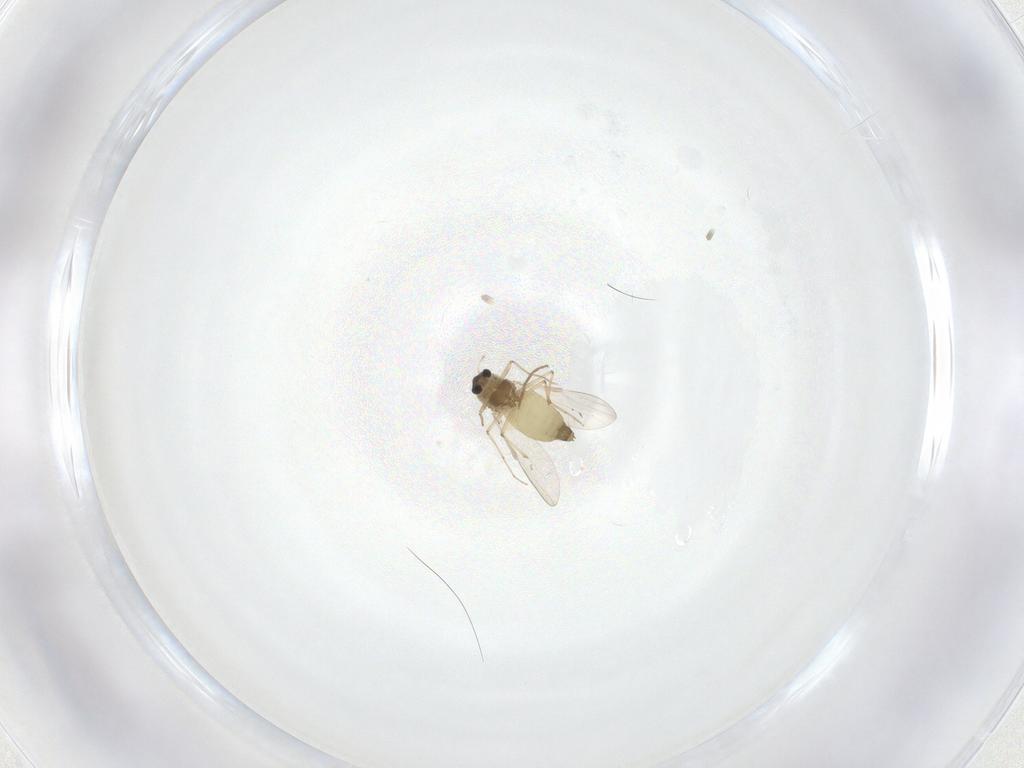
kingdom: Animalia
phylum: Arthropoda
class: Insecta
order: Diptera
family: Chironomidae
